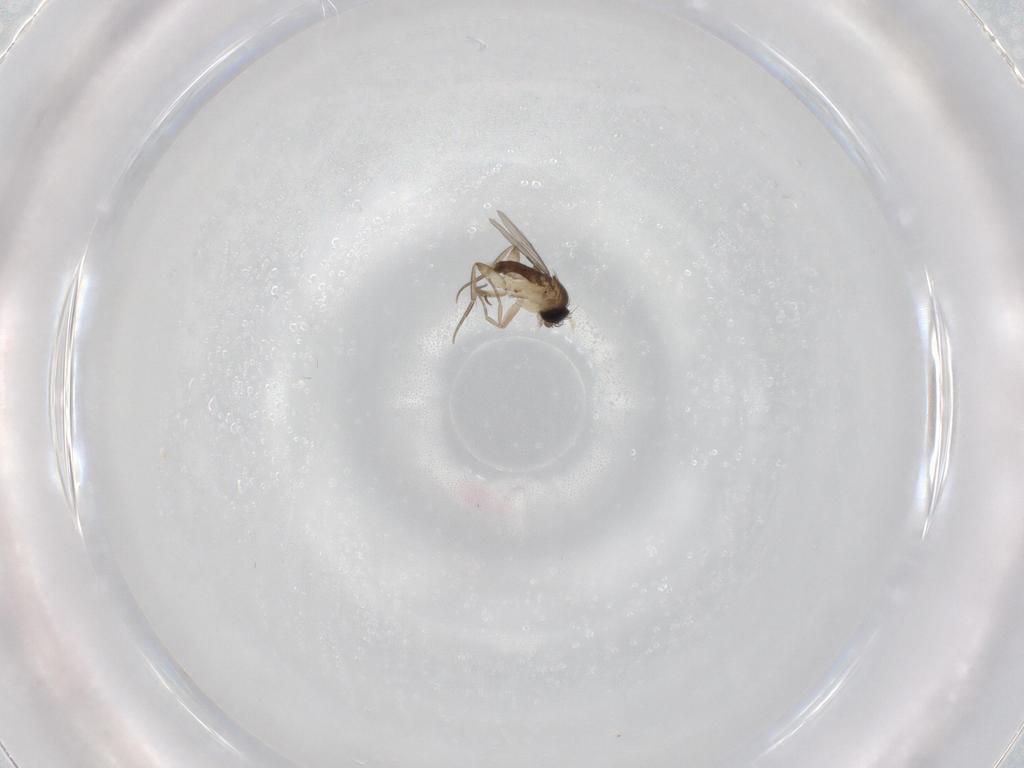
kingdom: Animalia
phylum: Arthropoda
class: Insecta
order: Diptera
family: Phoridae
